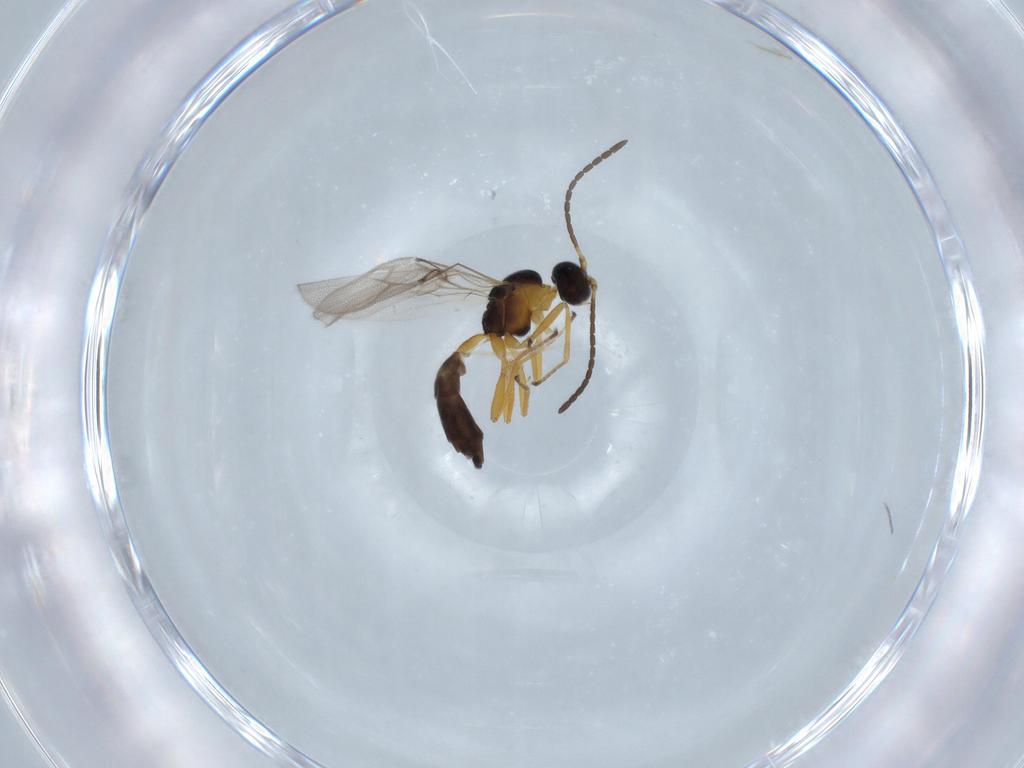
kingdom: Animalia
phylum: Arthropoda
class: Insecta
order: Hymenoptera
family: Braconidae
